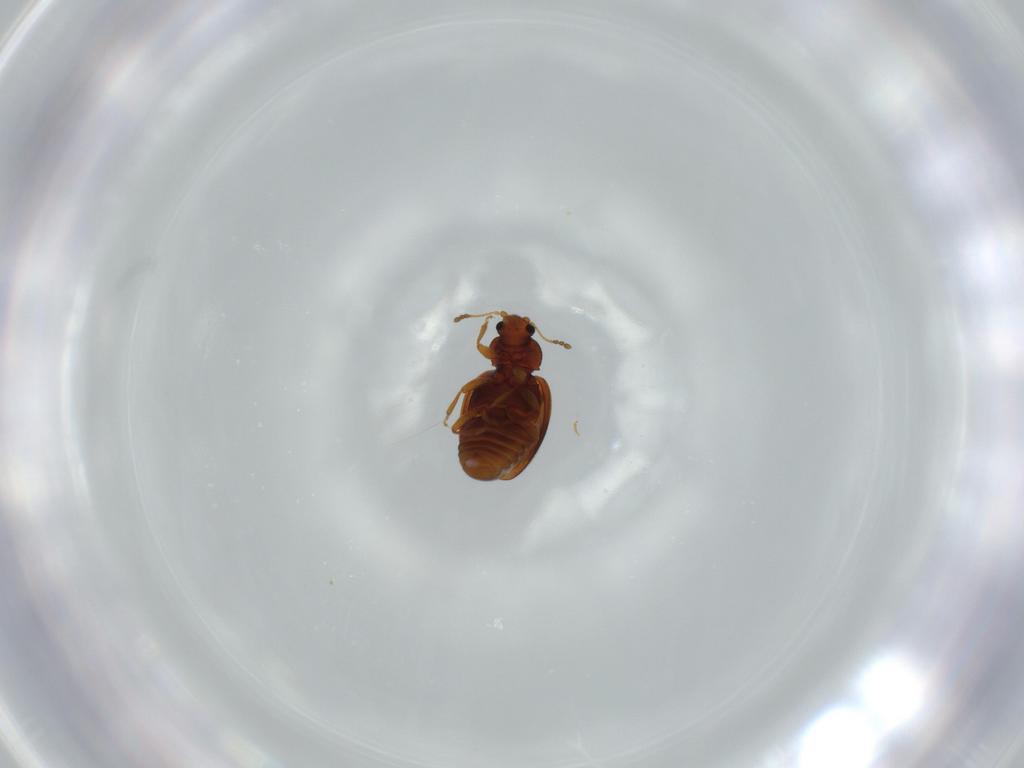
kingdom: Animalia
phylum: Arthropoda
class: Insecta
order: Coleoptera
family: Latridiidae
